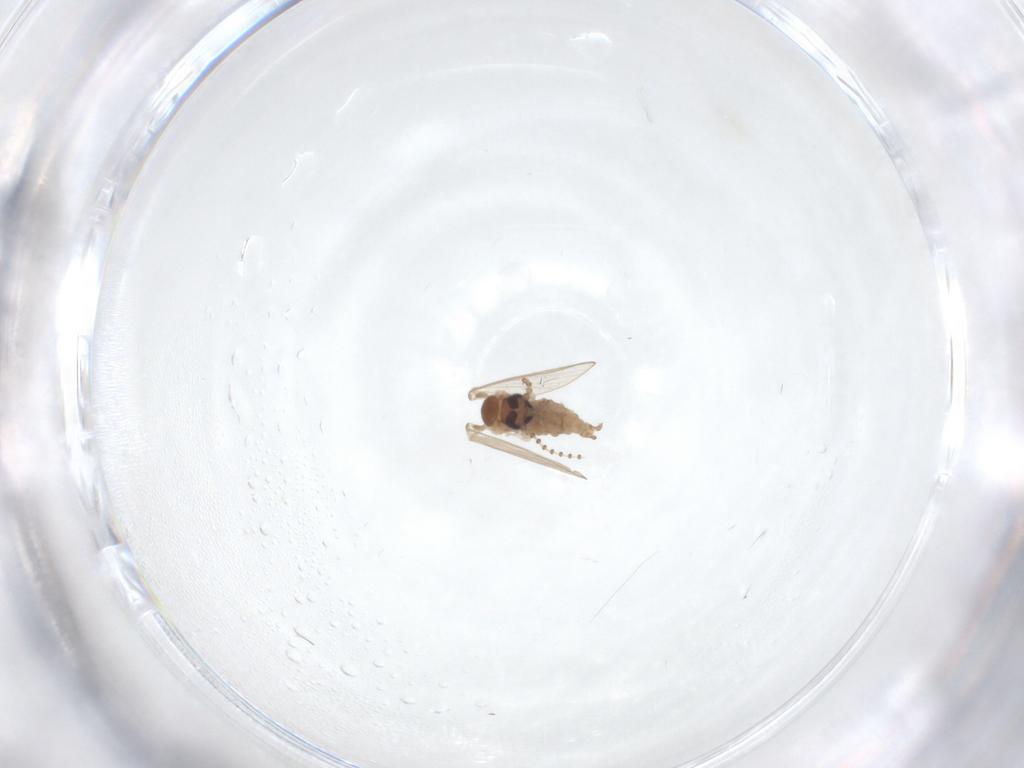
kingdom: Animalia
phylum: Arthropoda
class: Insecta
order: Diptera
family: Psychodidae
